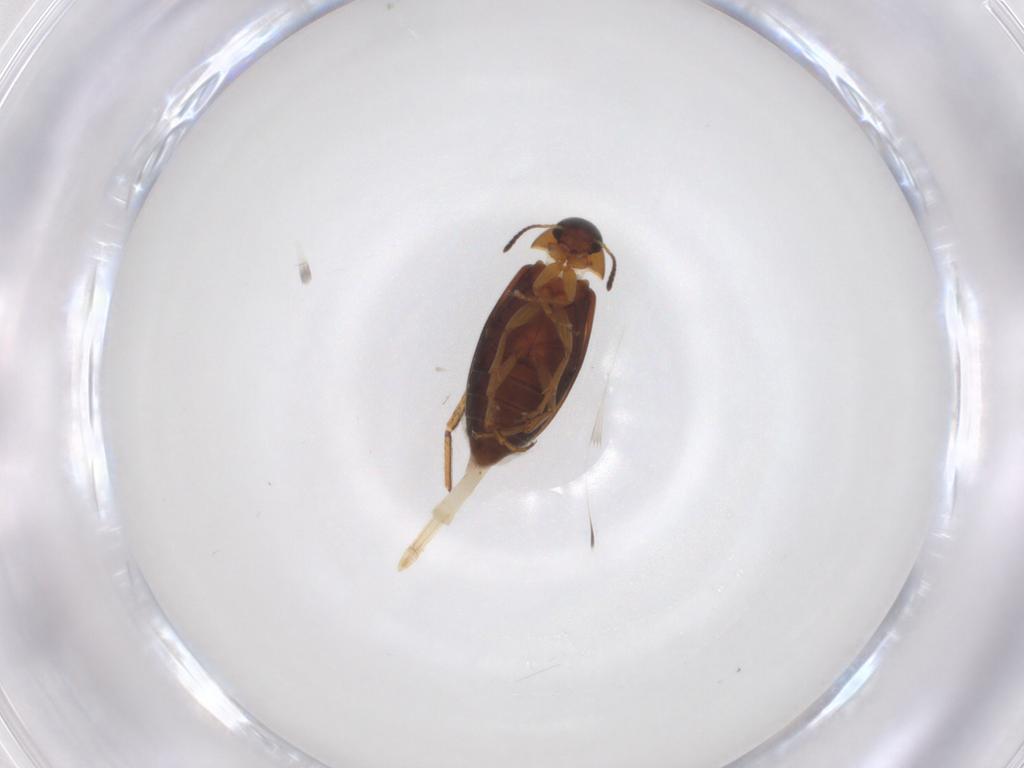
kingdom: Animalia
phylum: Arthropoda
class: Insecta
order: Coleoptera
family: Scraptiidae
